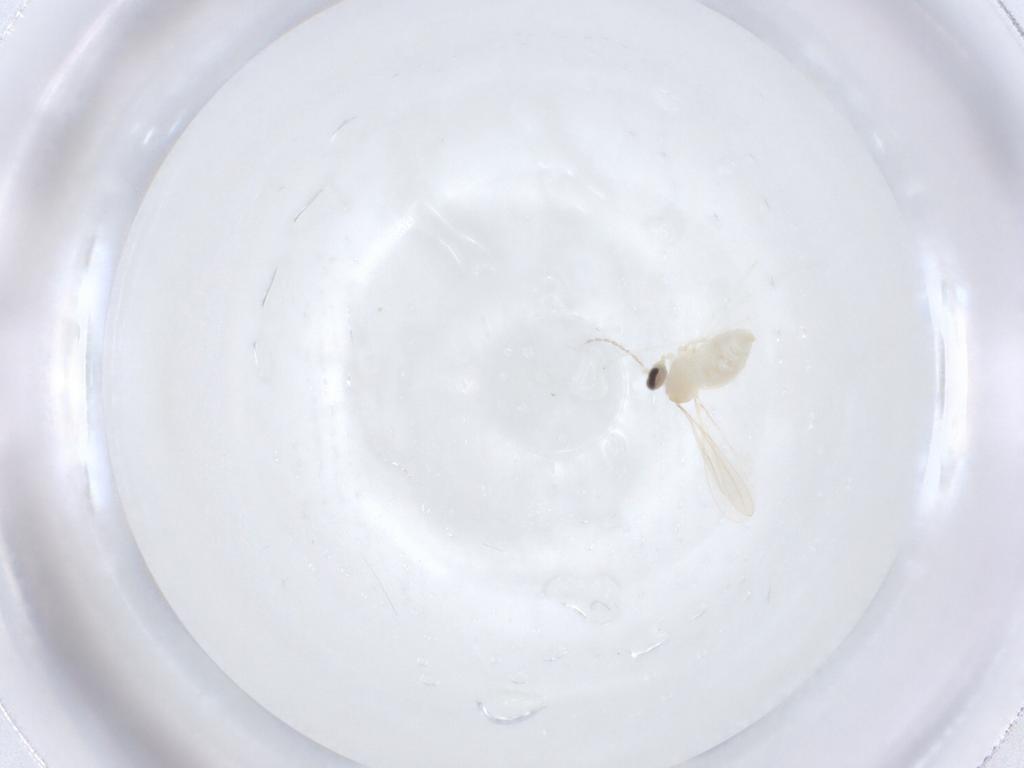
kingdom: Animalia
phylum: Arthropoda
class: Insecta
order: Diptera
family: Cecidomyiidae
